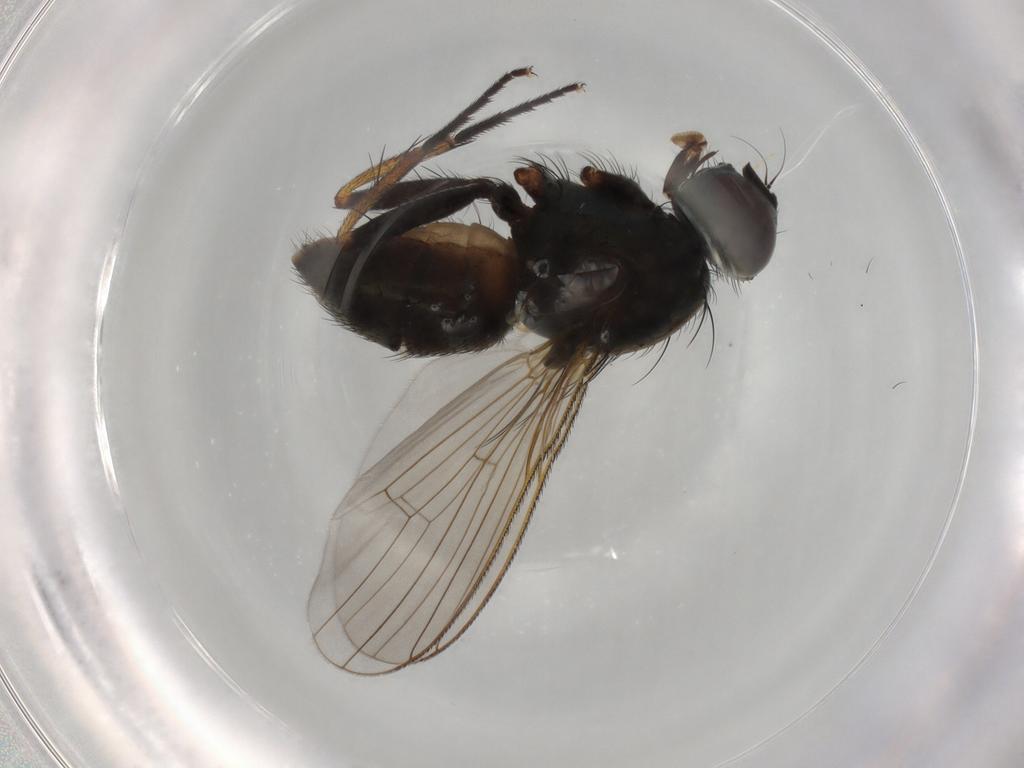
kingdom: Animalia
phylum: Arthropoda
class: Insecta
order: Diptera
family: Muscidae
